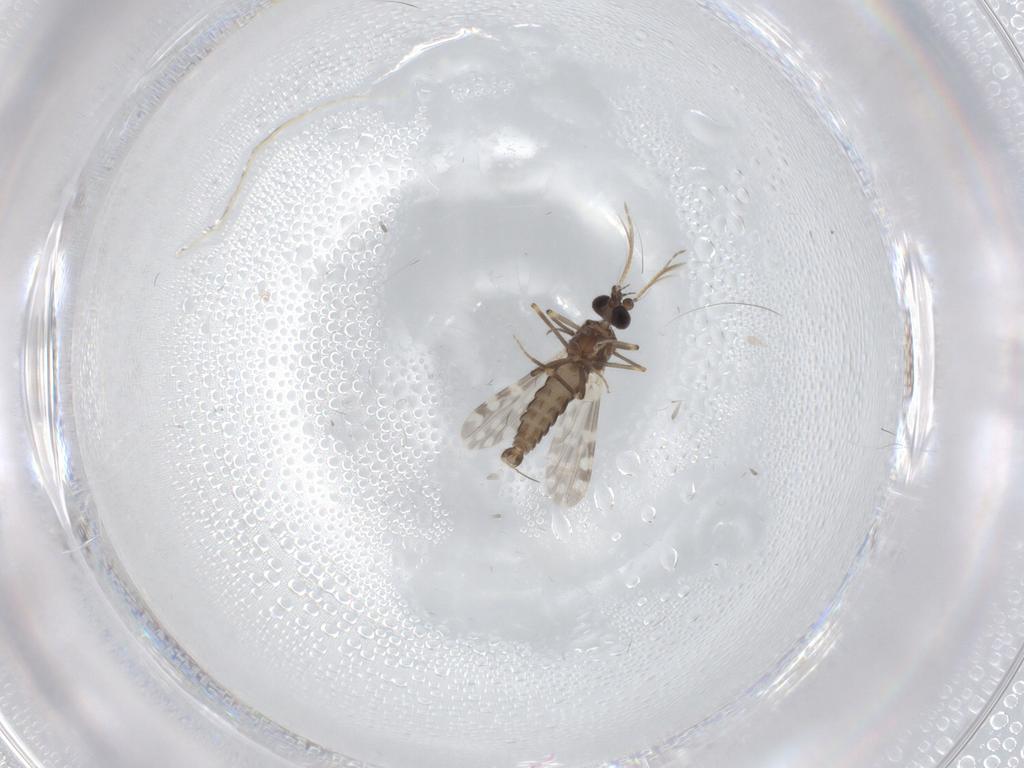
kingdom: Animalia
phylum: Arthropoda
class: Insecta
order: Diptera
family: Ceratopogonidae
